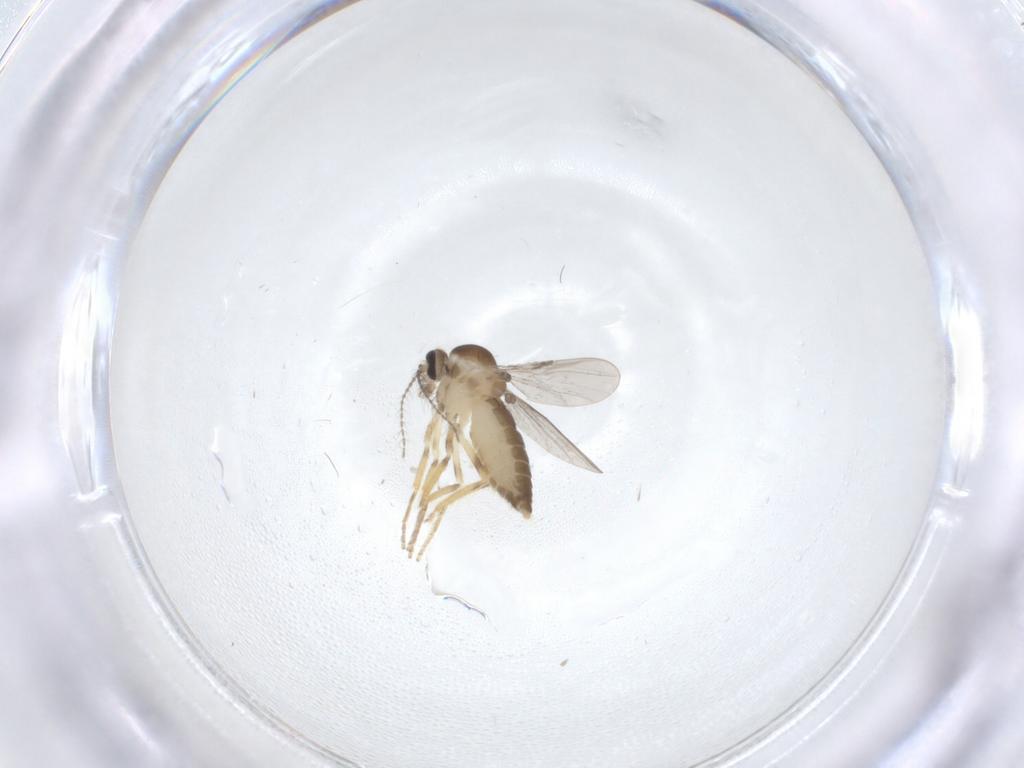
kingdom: Animalia
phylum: Arthropoda
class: Insecta
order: Diptera
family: Ceratopogonidae
